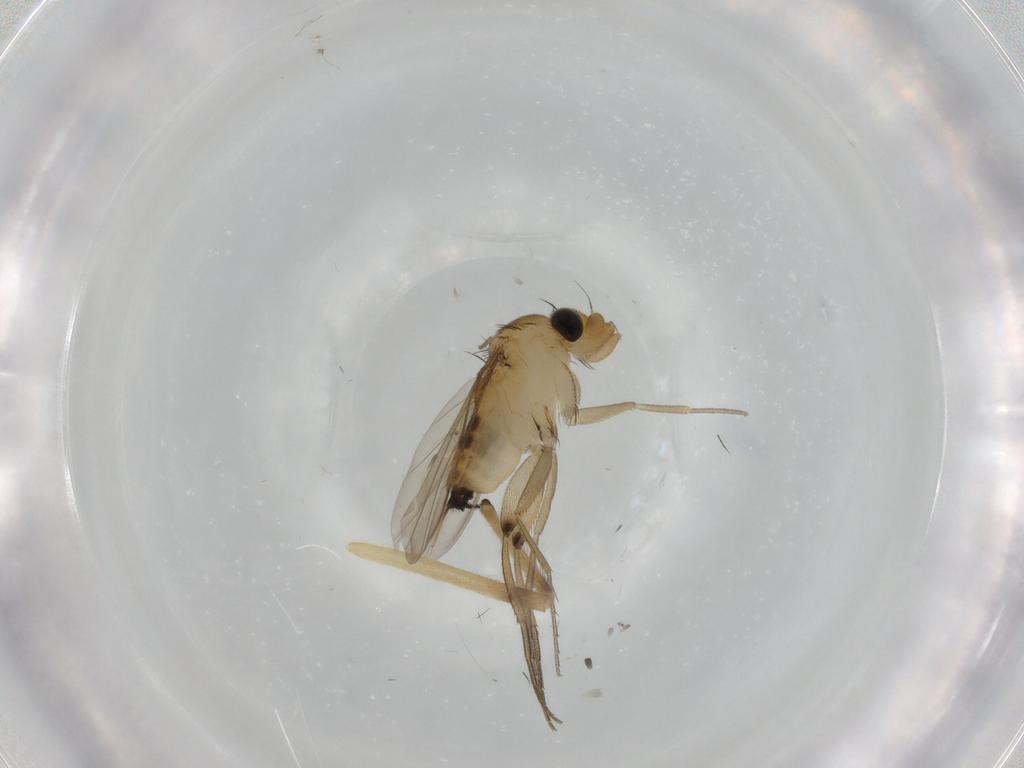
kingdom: Animalia
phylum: Arthropoda
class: Insecta
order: Diptera
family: Phoridae
